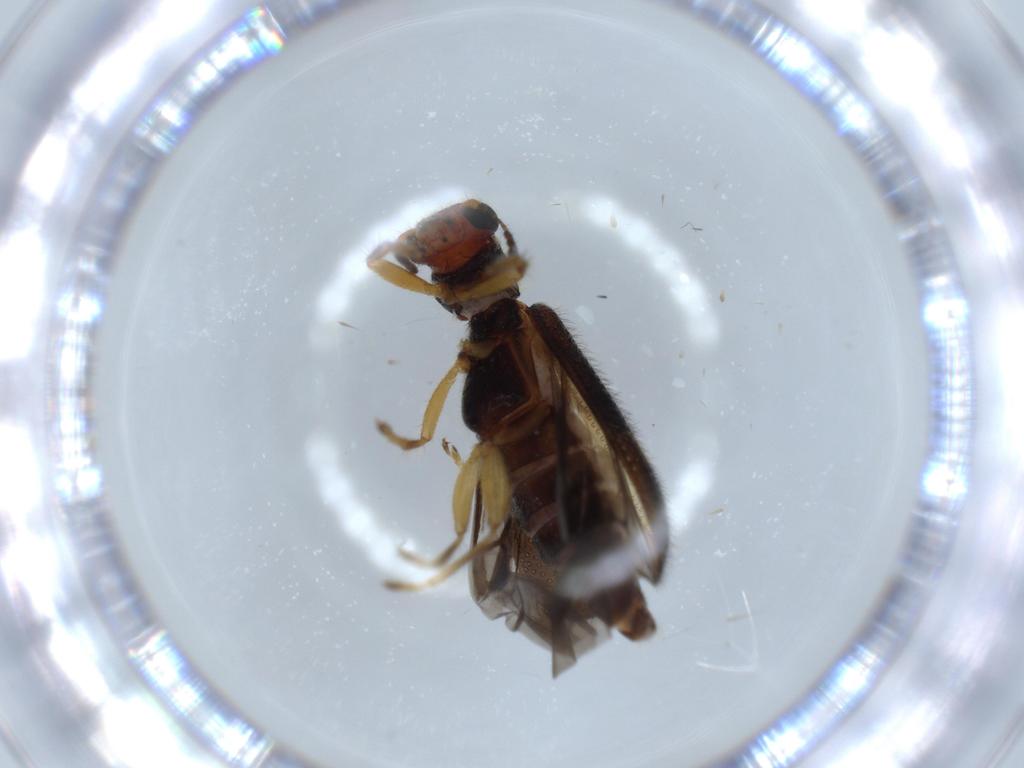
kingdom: Animalia
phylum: Arthropoda
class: Insecta
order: Coleoptera
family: Cleridae
